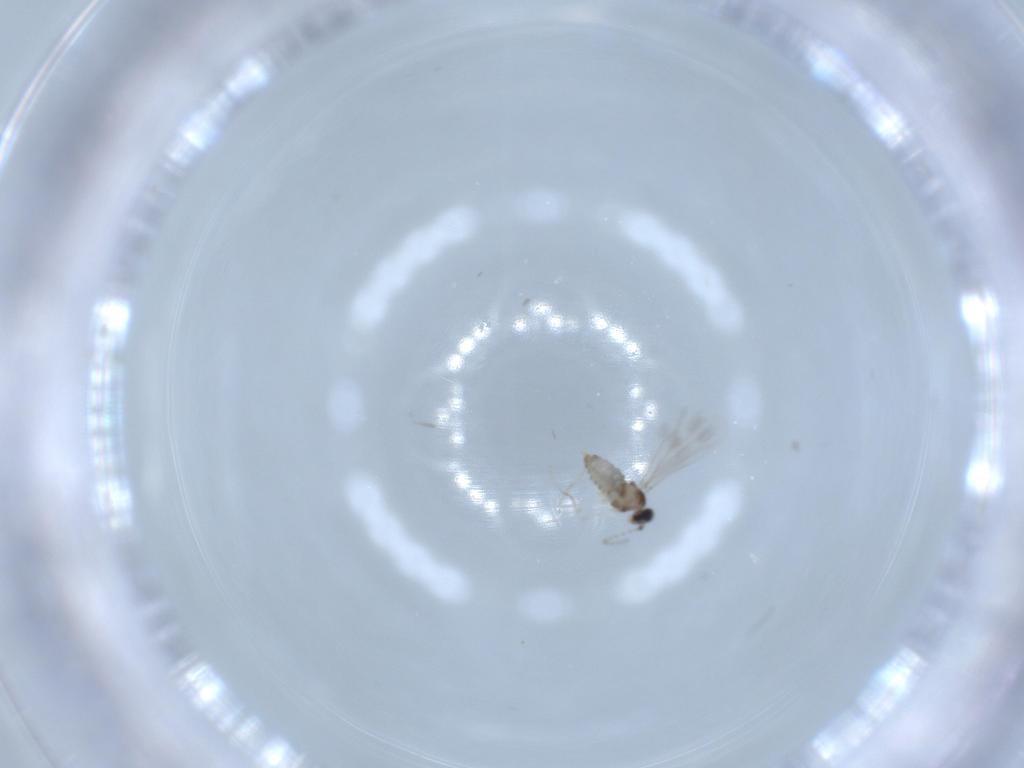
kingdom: Animalia
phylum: Arthropoda
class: Insecta
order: Diptera
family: Cecidomyiidae
